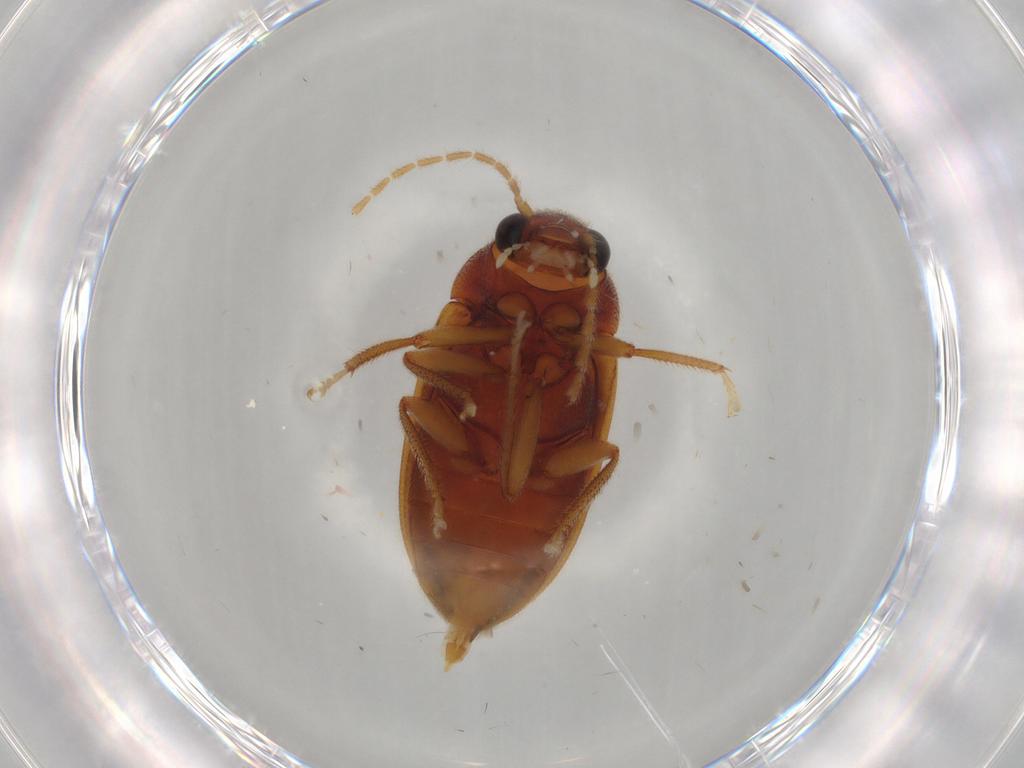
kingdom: Animalia
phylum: Arthropoda
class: Insecta
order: Coleoptera
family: Ptilodactylidae
